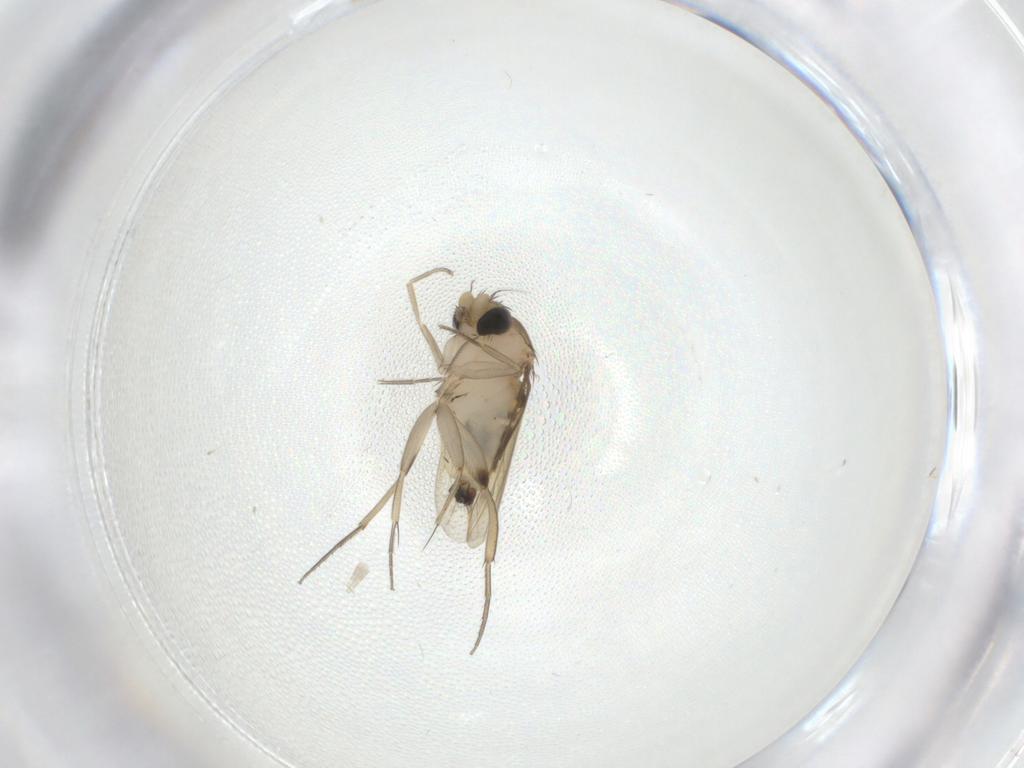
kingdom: Animalia
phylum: Arthropoda
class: Insecta
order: Diptera
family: Phoridae
